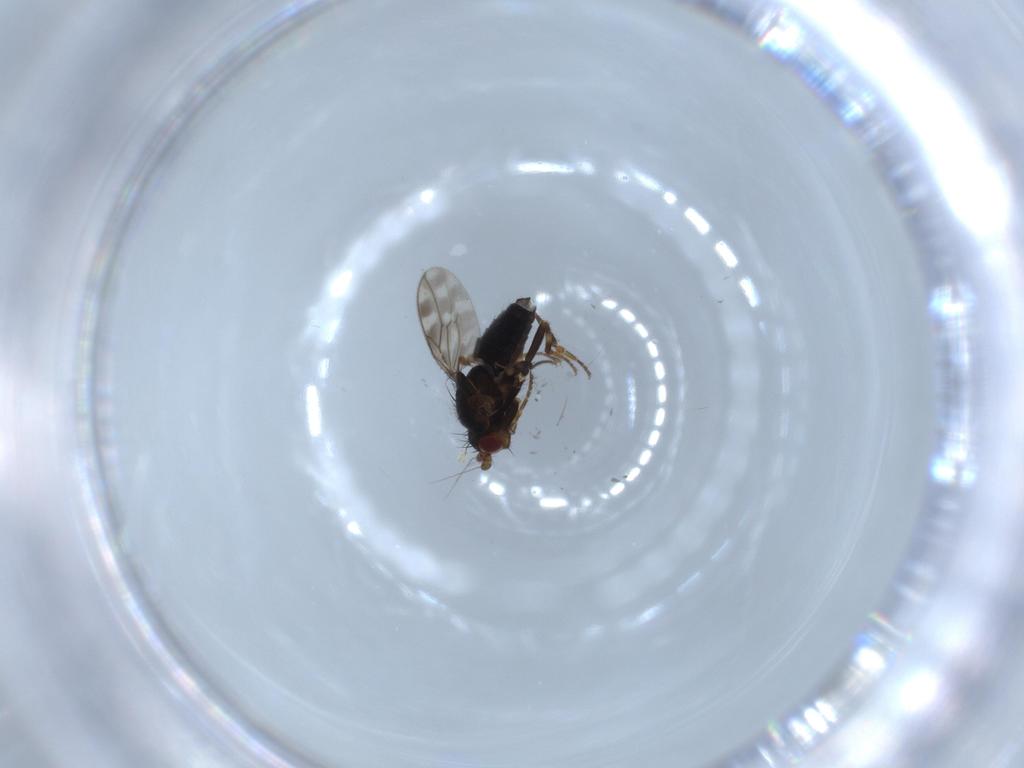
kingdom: Animalia
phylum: Arthropoda
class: Insecta
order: Diptera
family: Sphaeroceridae
